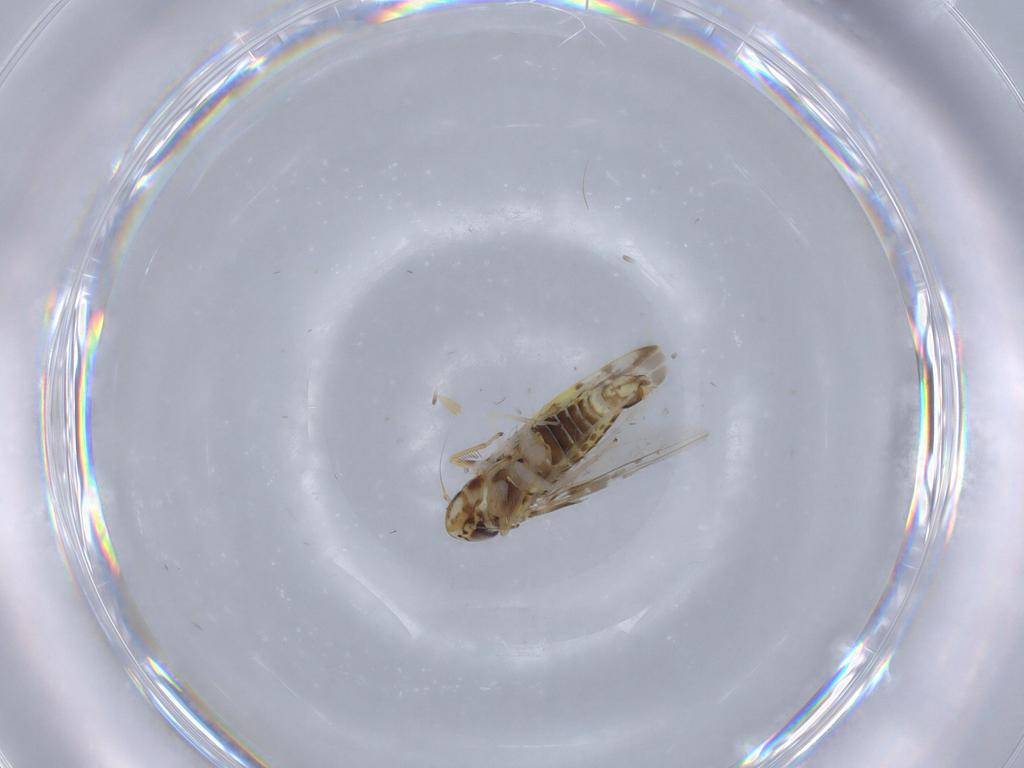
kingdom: Animalia
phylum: Arthropoda
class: Insecta
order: Hemiptera
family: Cicadellidae
